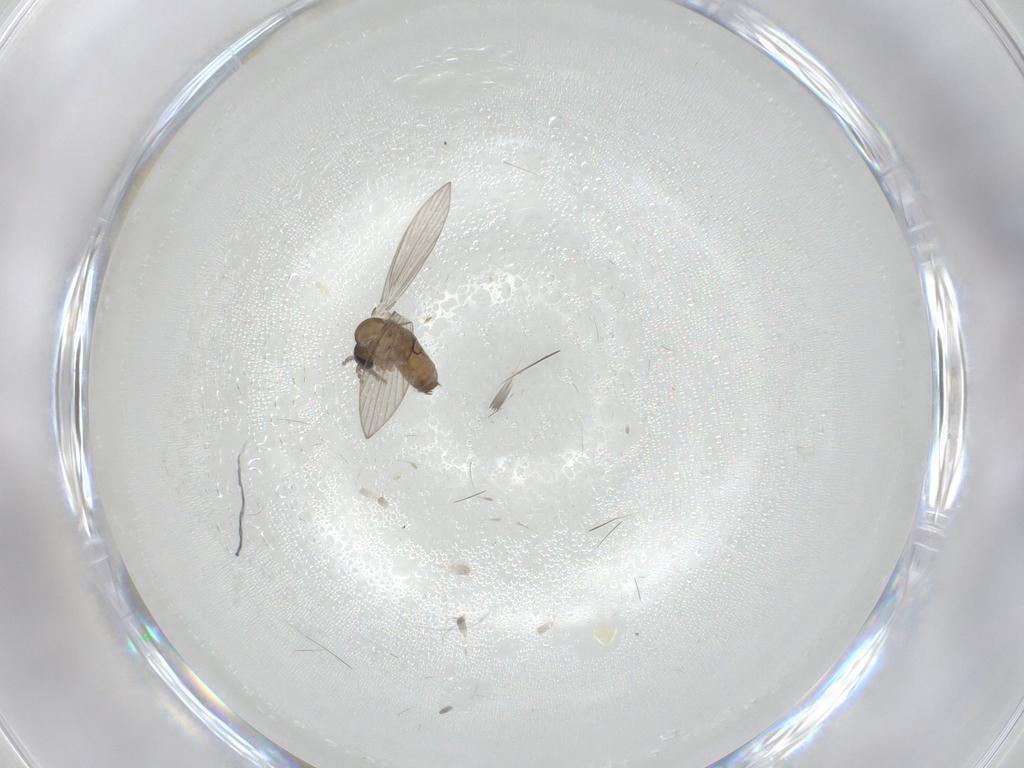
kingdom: Animalia
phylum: Arthropoda
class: Insecta
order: Diptera
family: Psychodidae
